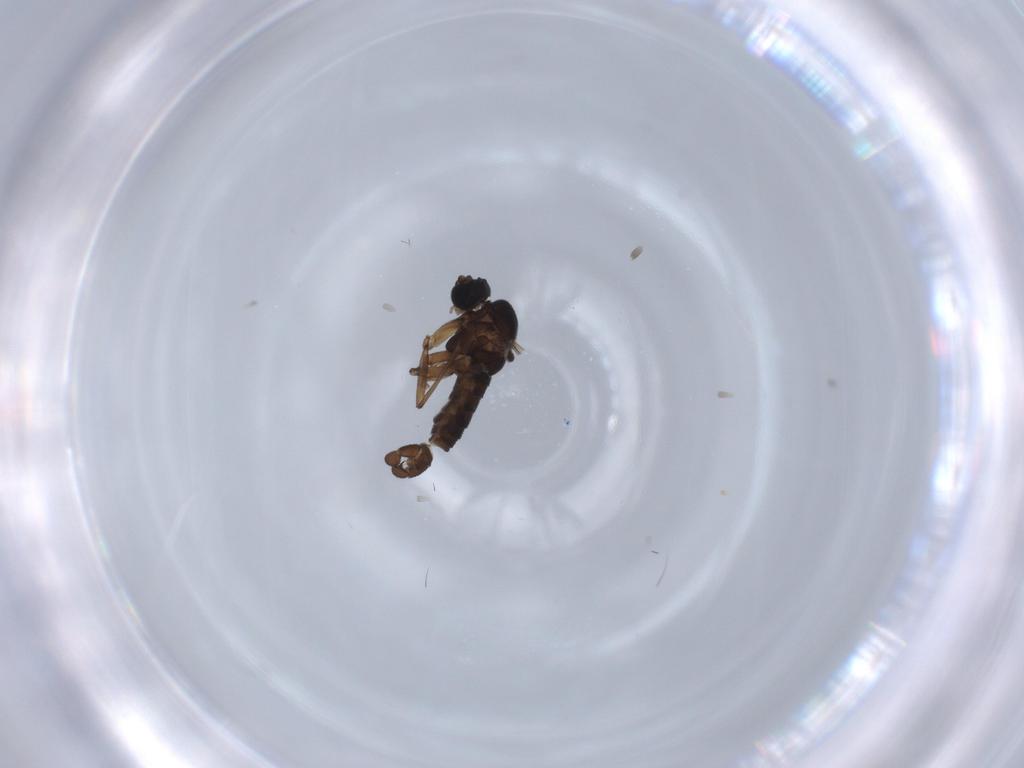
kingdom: Animalia
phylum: Arthropoda
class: Insecta
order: Diptera
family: Sciaridae
